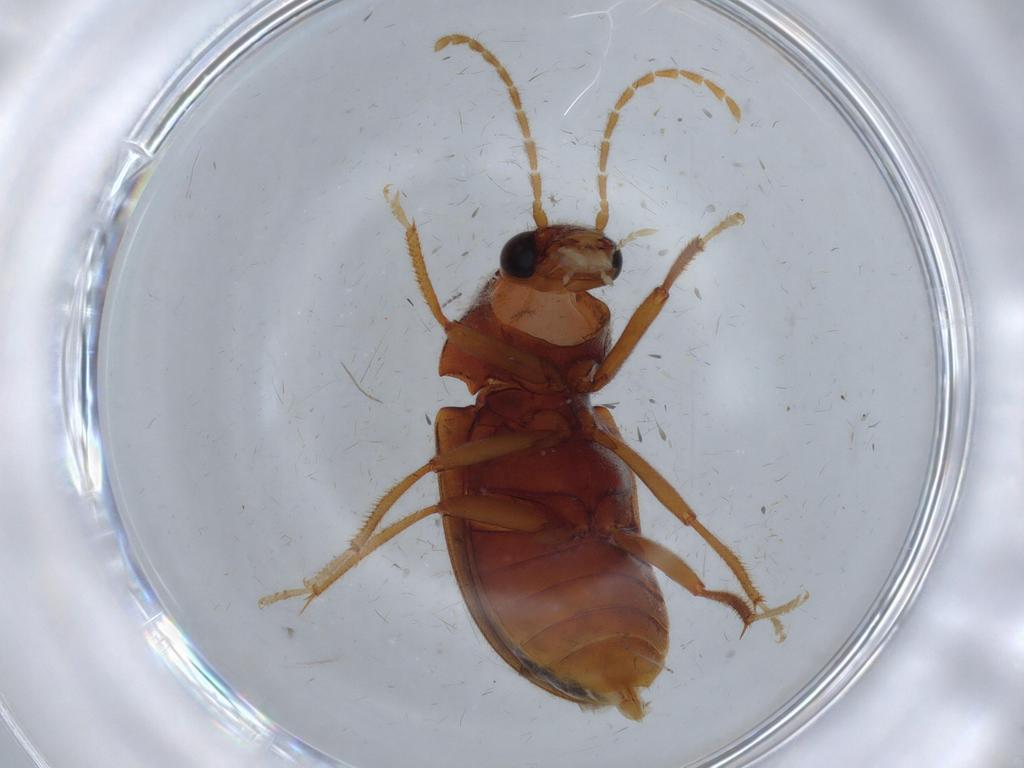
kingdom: Animalia
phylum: Arthropoda
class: Insecta
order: Coleoptera
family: Ptilodactylidae
